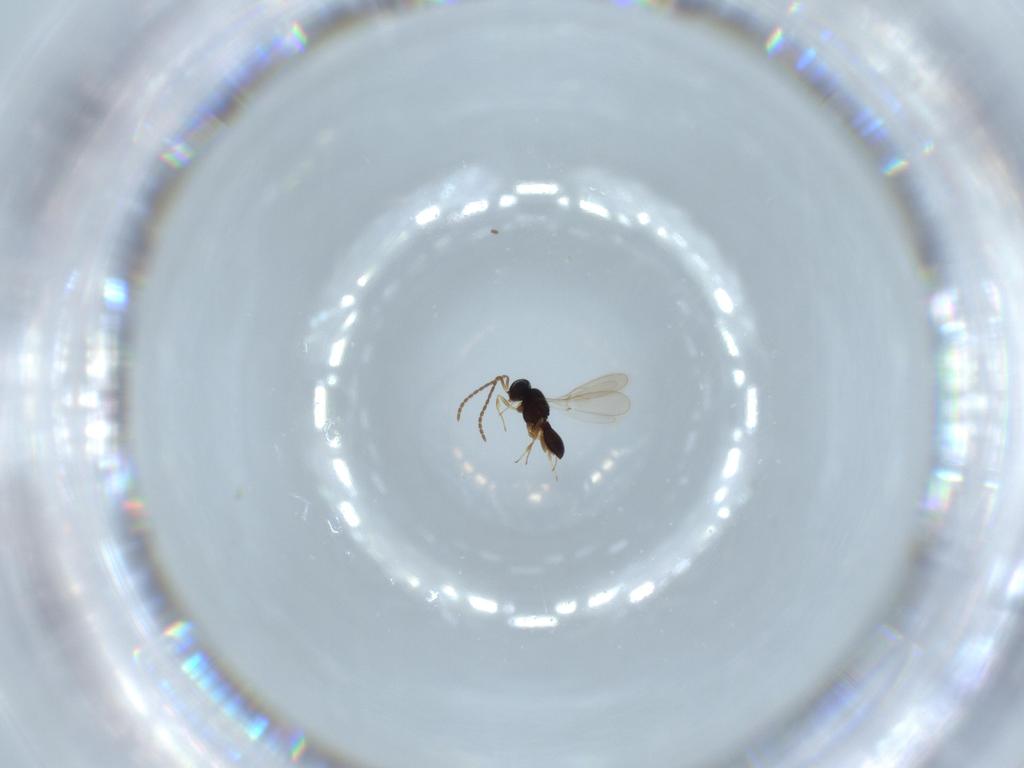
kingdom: Animalia
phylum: Arthropoda
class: Insecta
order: Hymenoptera
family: Scelionidae
